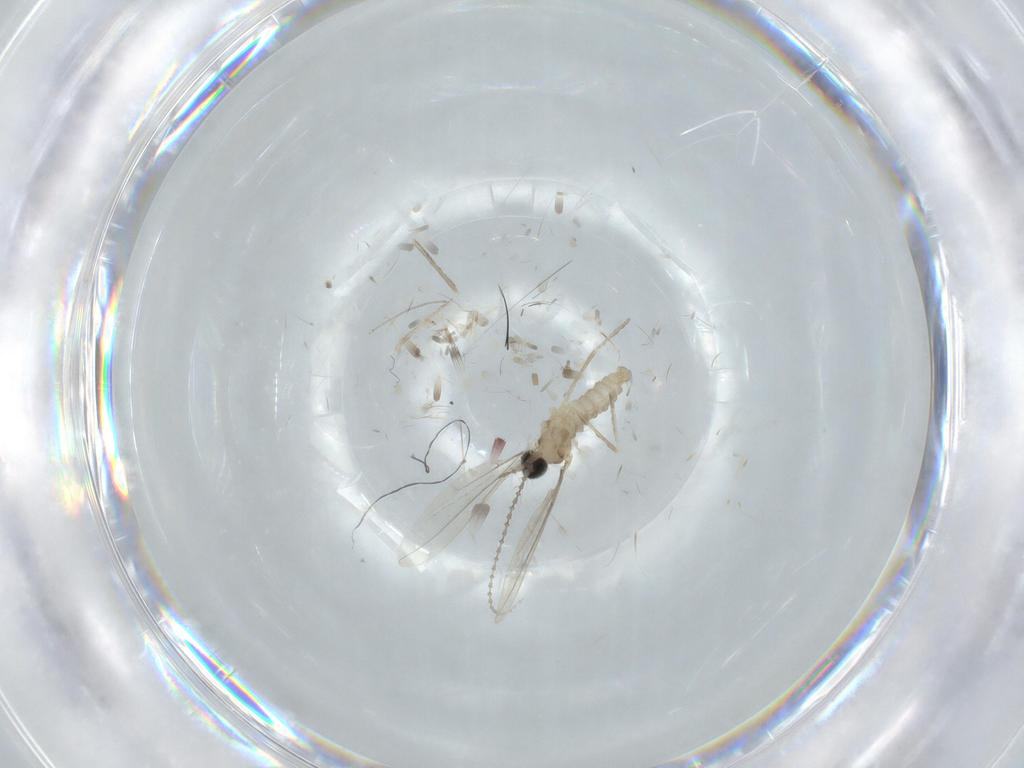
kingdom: Animalia
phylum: Arthropoda
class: Insecta
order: Diptera
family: Cecidomyiidae
